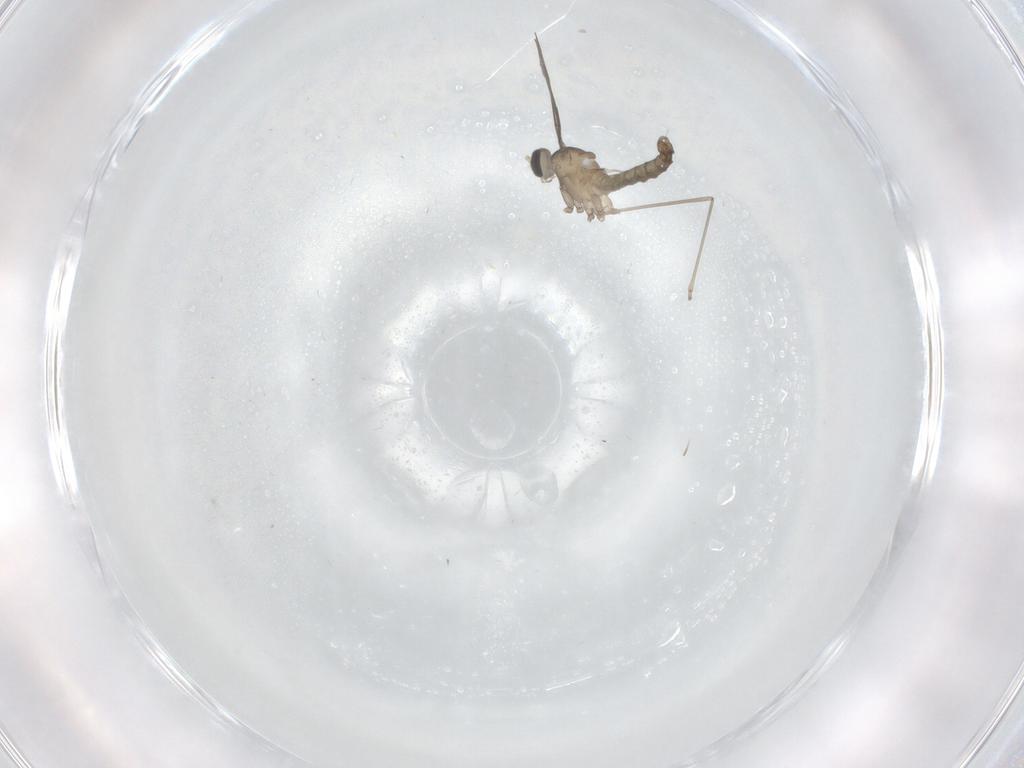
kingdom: Animalia
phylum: Arthropoda
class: Insecta
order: Diptera
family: Cecidomyiidae
